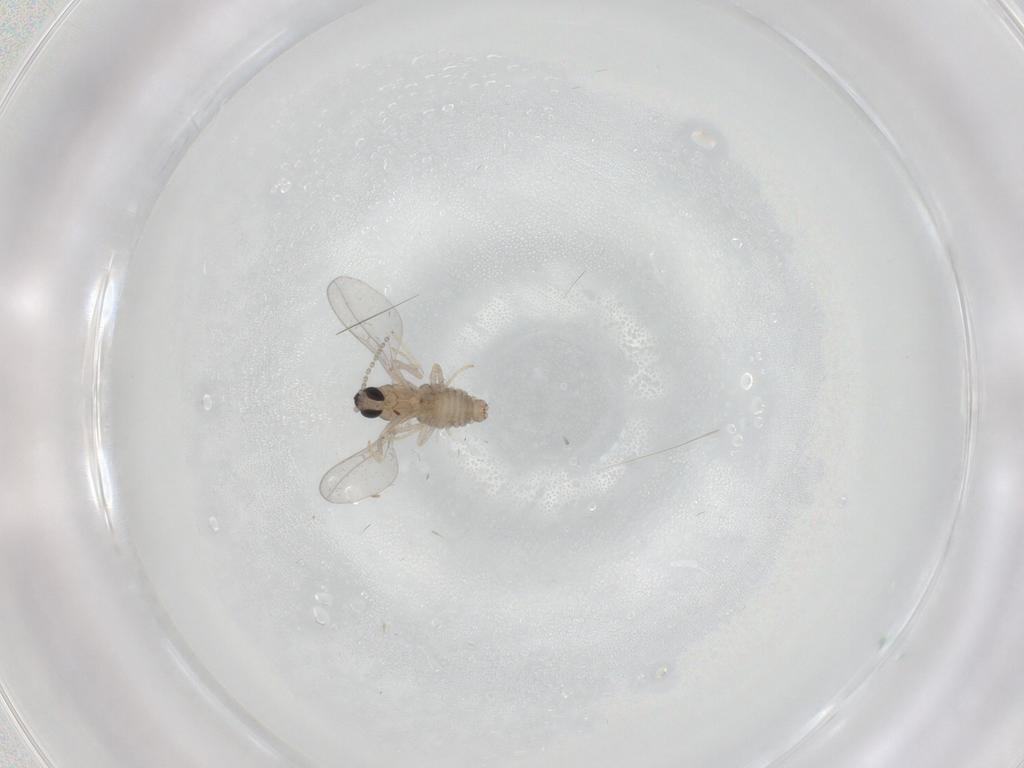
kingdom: Animalia
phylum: Arthropoda
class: Insecta
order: Diptera
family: Cecidomyiidae
